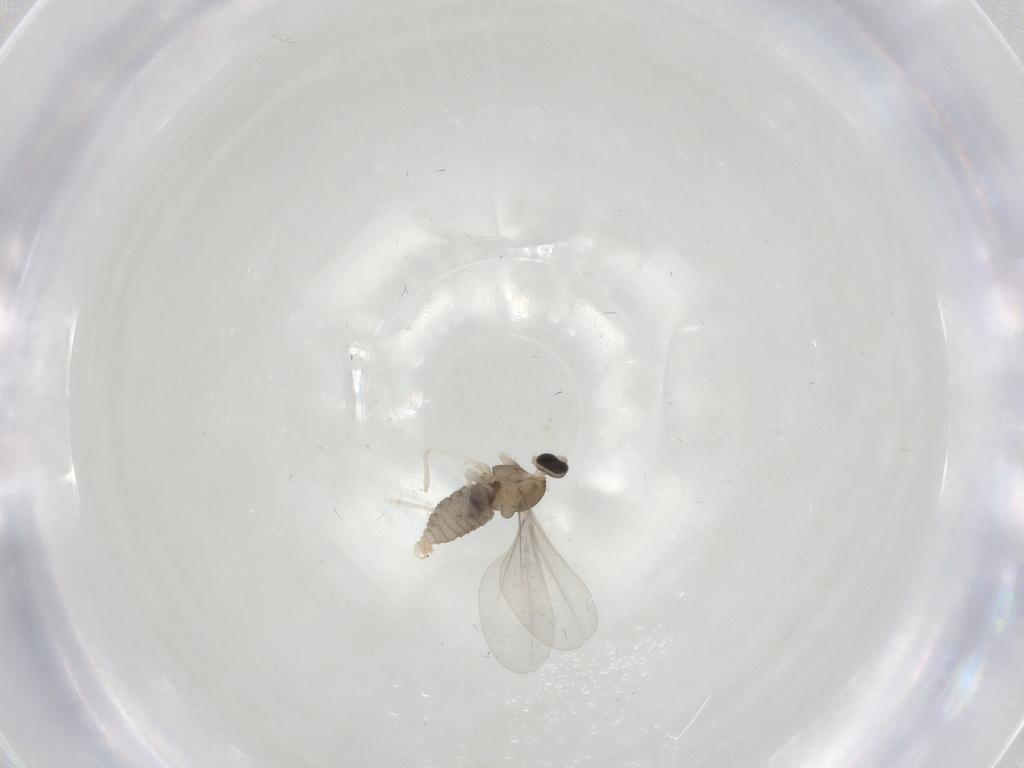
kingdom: Animalia
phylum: Arthropoda
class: Insecta
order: Diptera
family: Cecidomyiidae
